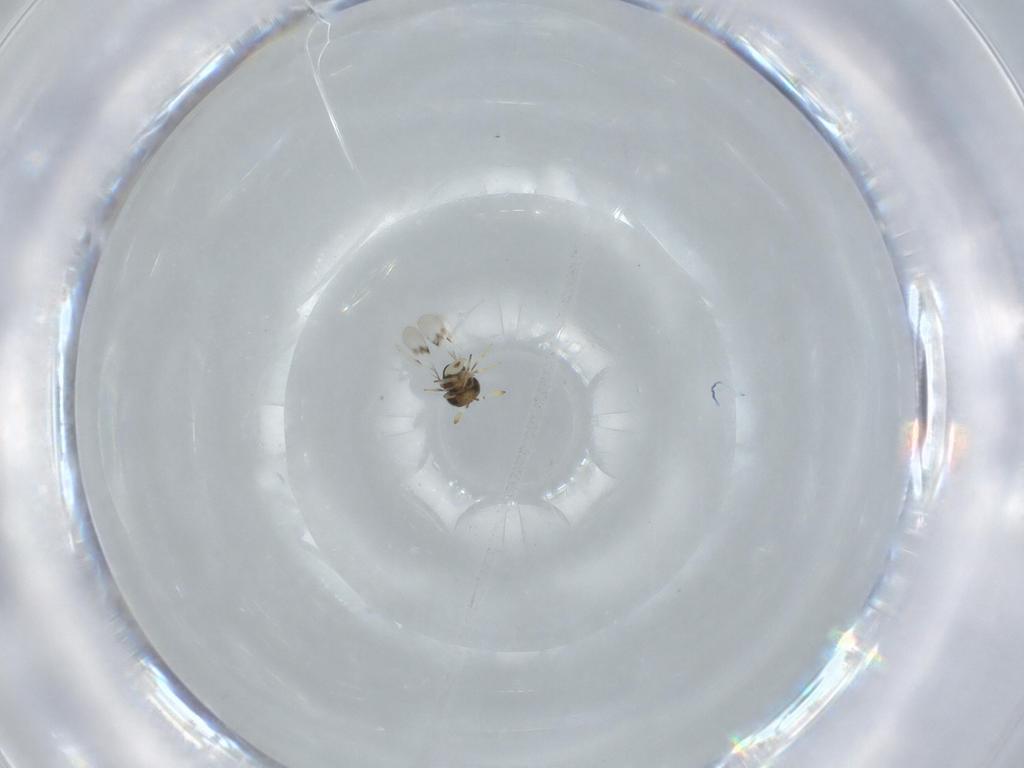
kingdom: Animalia
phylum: Arthropoda
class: Insecta
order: Hymenoptera
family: Scelionidae
